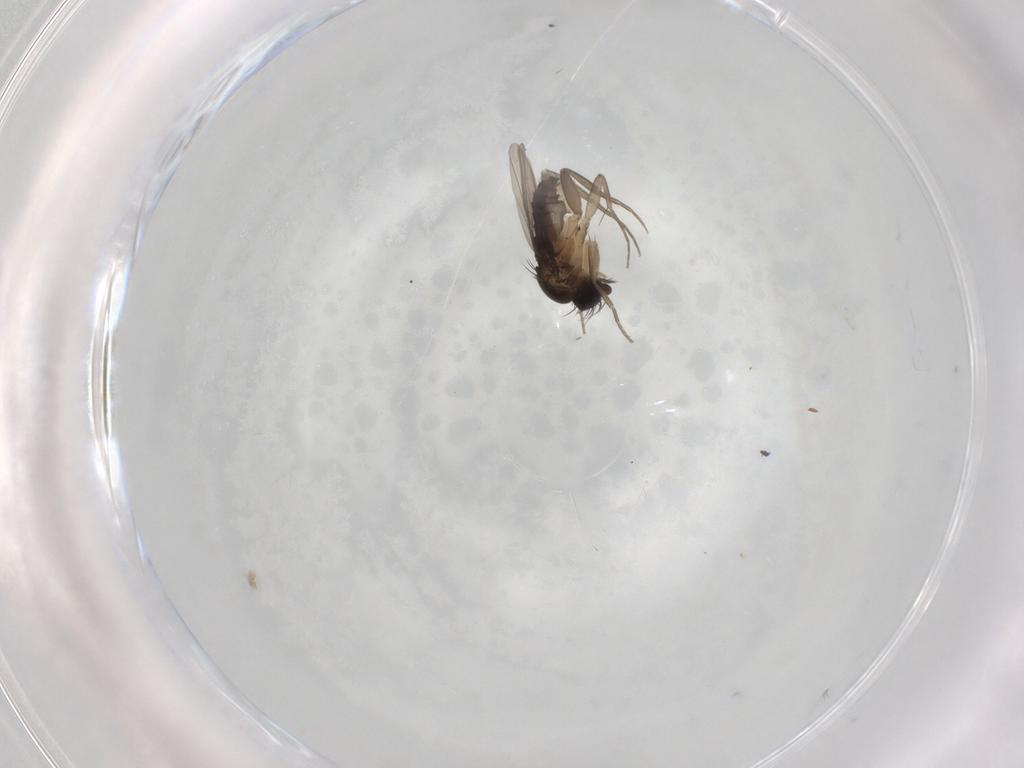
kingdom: Animalia
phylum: Arthropoda
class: Insecta
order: Diptera
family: Phoridae
